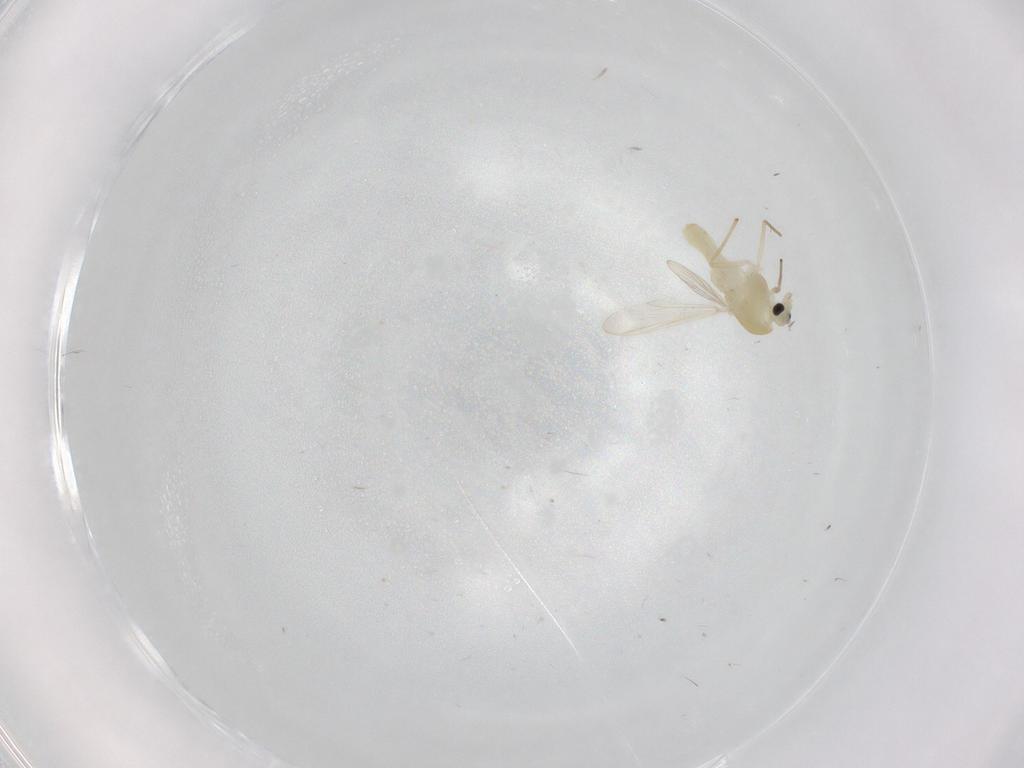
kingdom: Animalia
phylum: Arthropoda
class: Insecta
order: Diptera
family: Chironomidae
